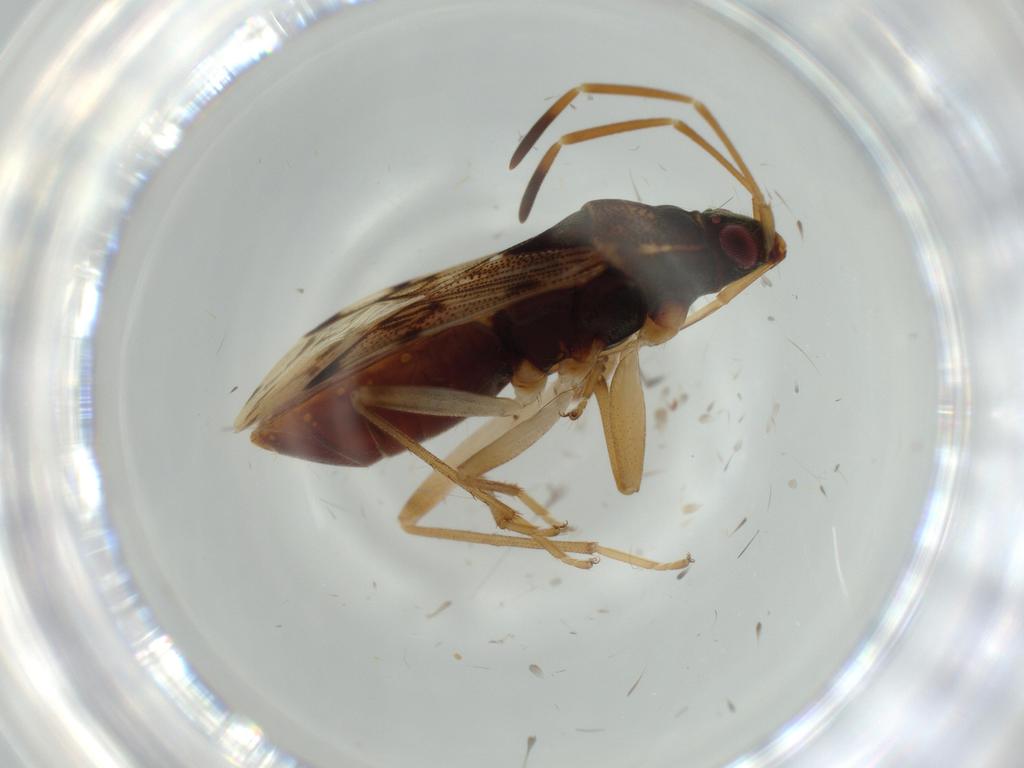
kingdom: Animalia
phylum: Arthropoda
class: Insecta
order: Hemiptera
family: Rhyparochromidae
